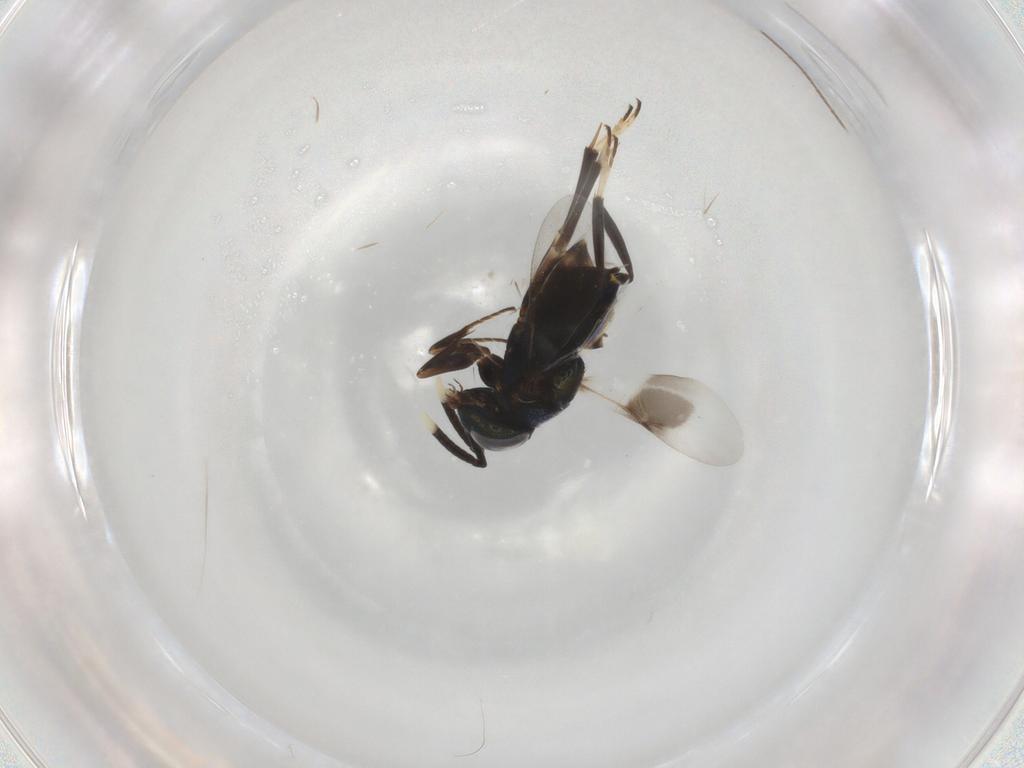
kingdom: Animalia
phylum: Arthropoda
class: Insecta
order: Hymenoptera
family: Encyrtidae
